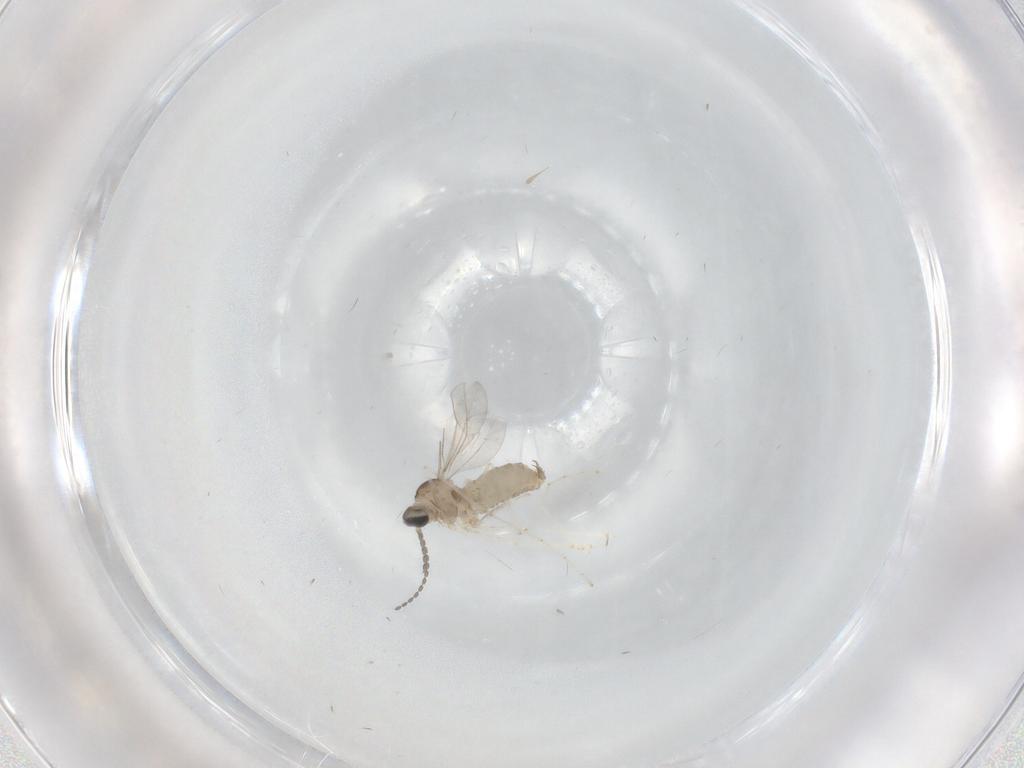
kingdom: Animalia
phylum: Arthropoda
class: Insecta
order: Diptera
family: Cecidomyiidae
